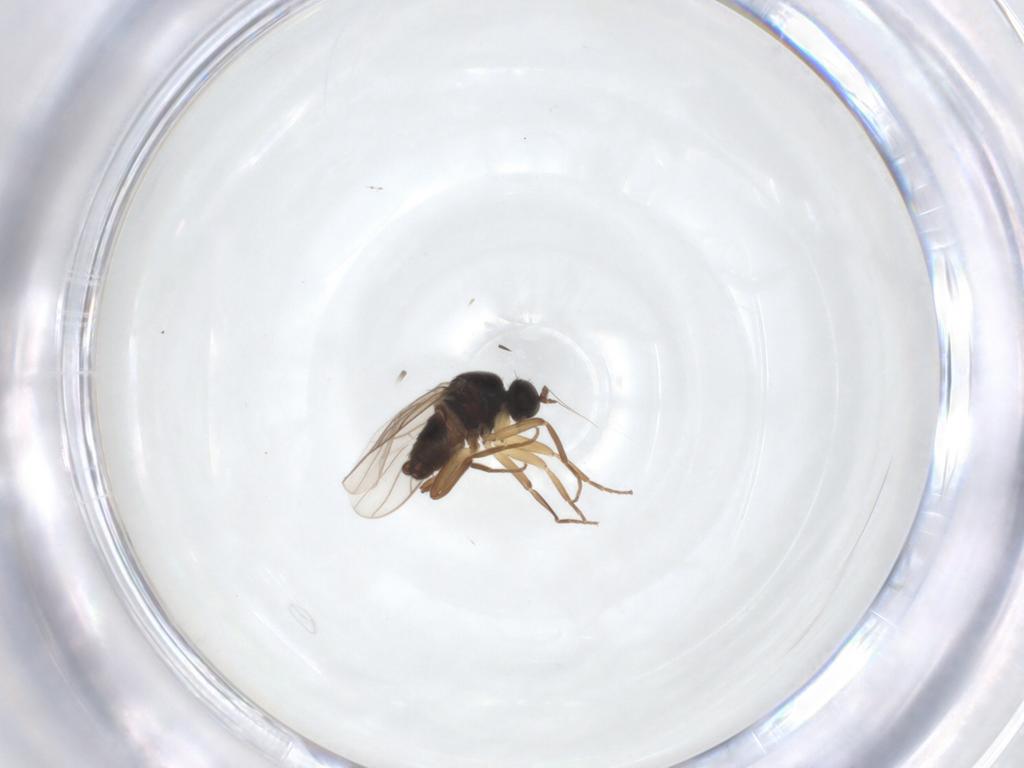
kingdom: Animalia
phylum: Arthropoda
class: Insecta
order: Diptera
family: Hybotidae
